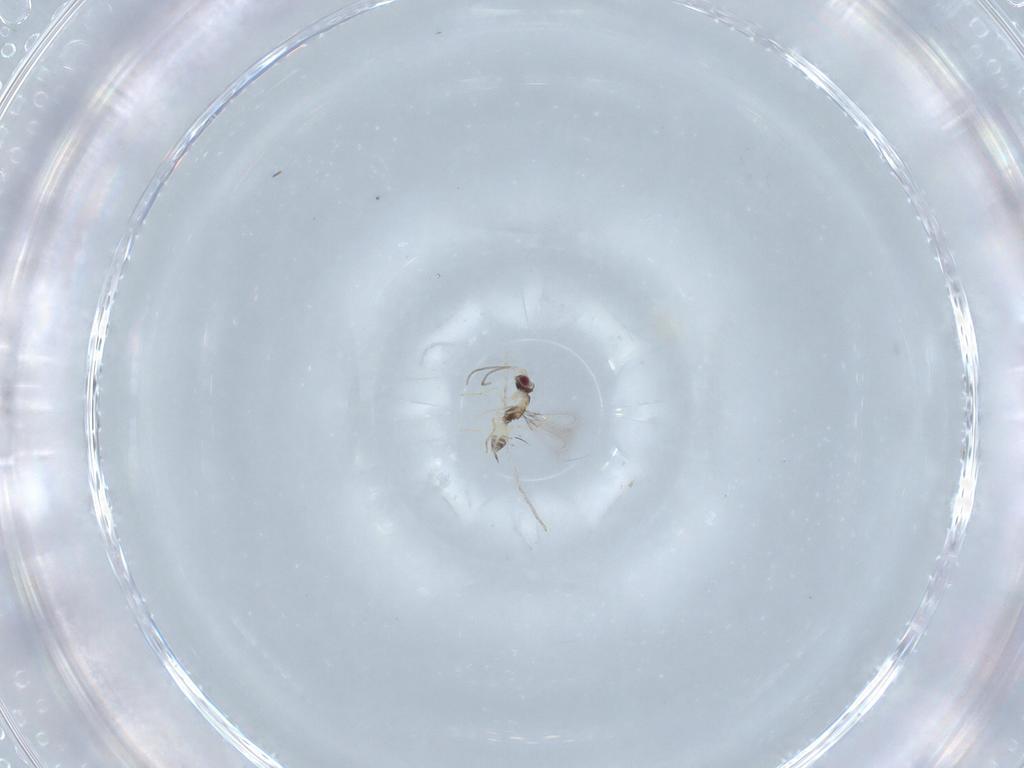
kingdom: Animalia
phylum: Arthropoda
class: Insecta
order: Hymenoptera
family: Mymaridae
